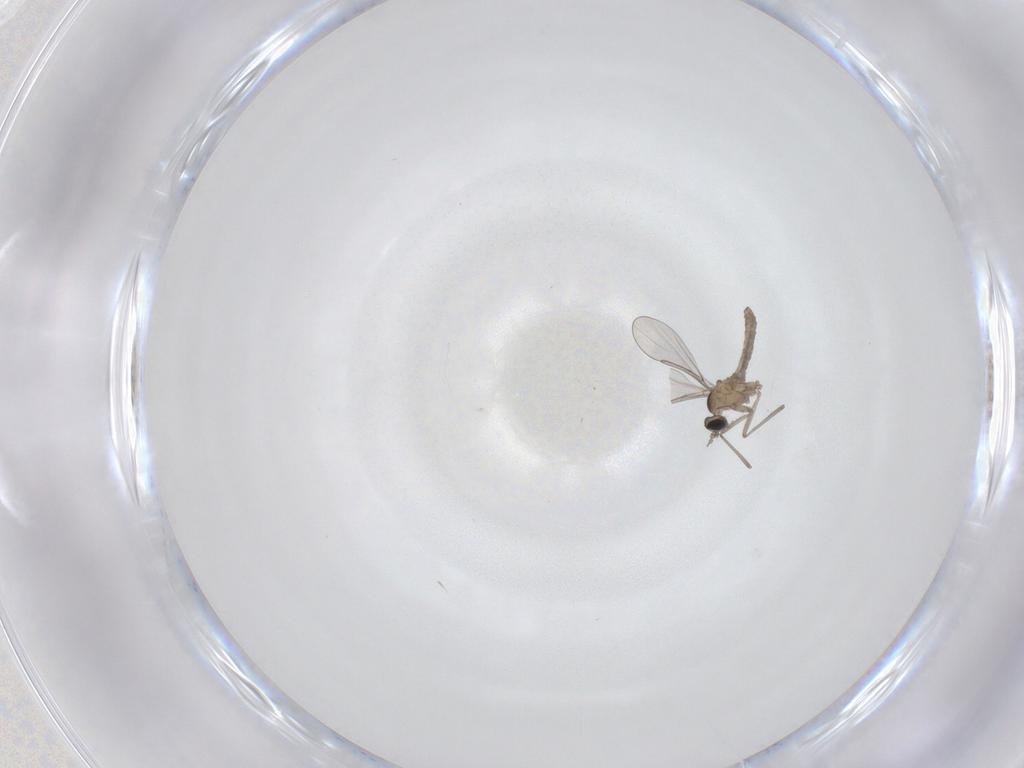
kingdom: Animalia
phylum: Arthropoda
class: Insecta
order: Diptera
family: Cecidomyiidae
